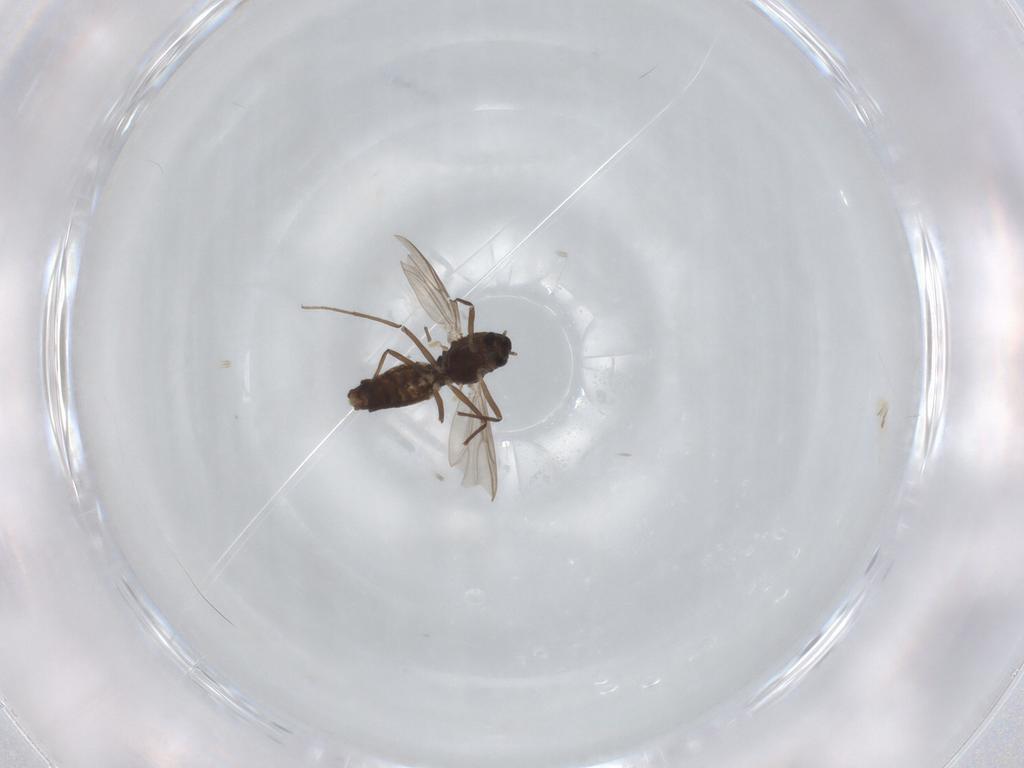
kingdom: Animalia
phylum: Arthropoda
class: Insecta
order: Diptera
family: Chironomidae
